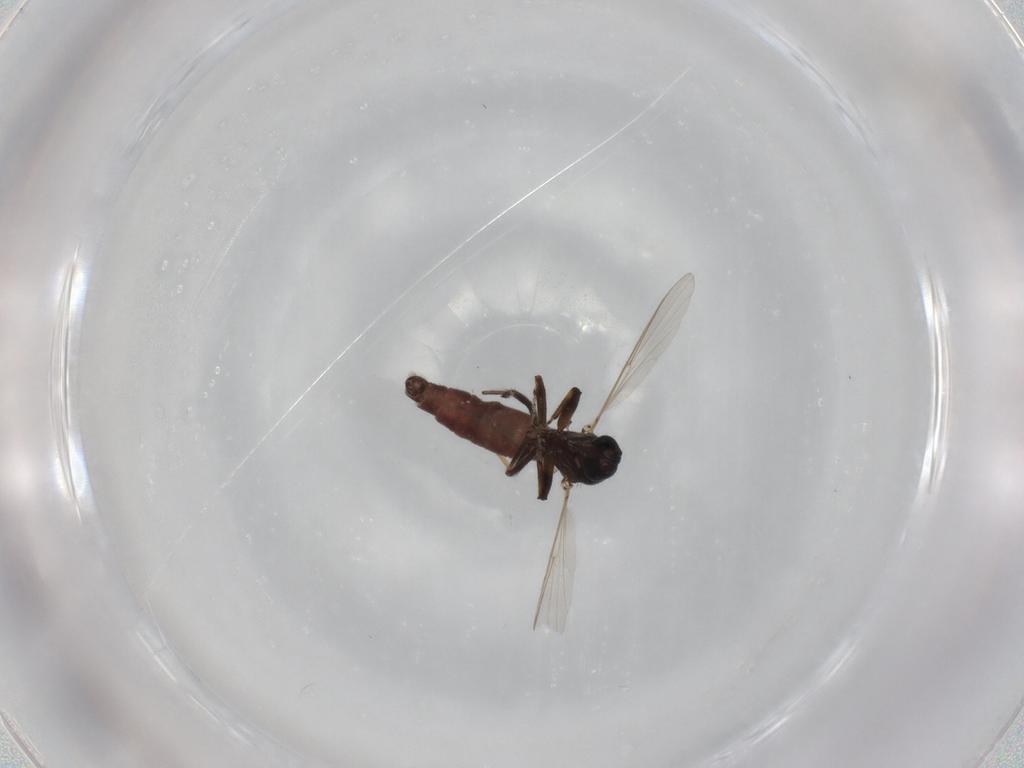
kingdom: Animalia
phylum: Arthropoda
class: Insecta
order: Diptera
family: Ceratopogonidae
